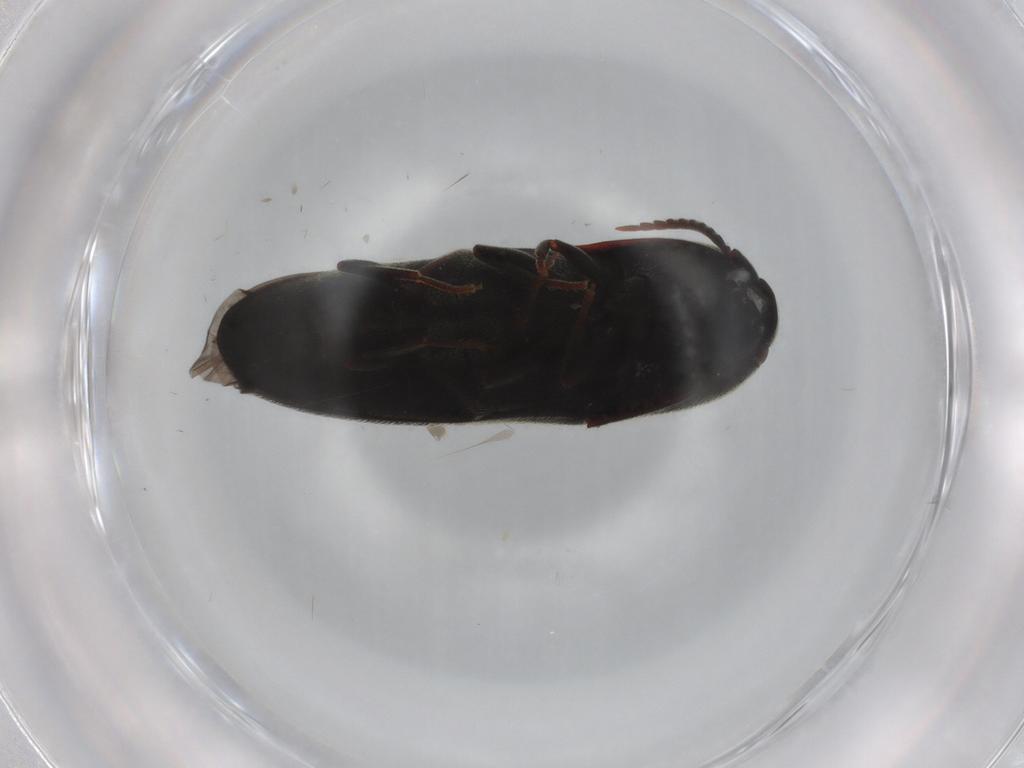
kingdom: Animalia
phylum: Arthropoda
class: Insecta
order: Coleoptera
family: Eucnemidae
